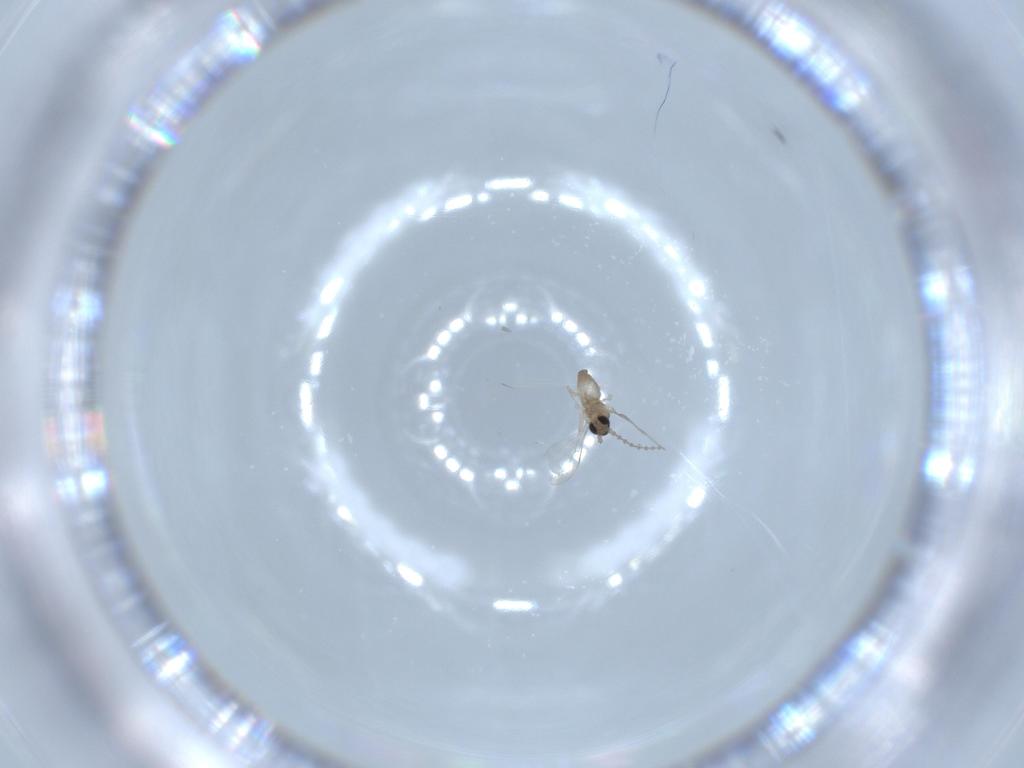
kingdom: Animalia
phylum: Arthropoda
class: Insecta
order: Diptera
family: Cecidomyiidae
